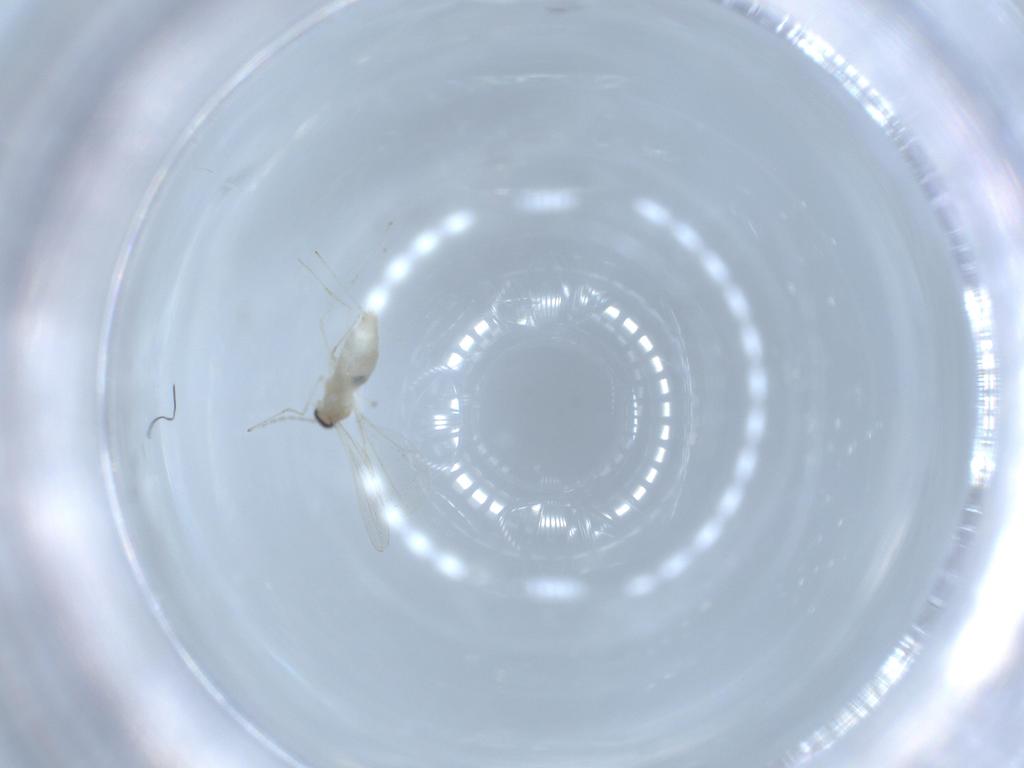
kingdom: Animalia
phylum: Arthropoda
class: Insecta
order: Diptera
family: Cecidomyiidae
